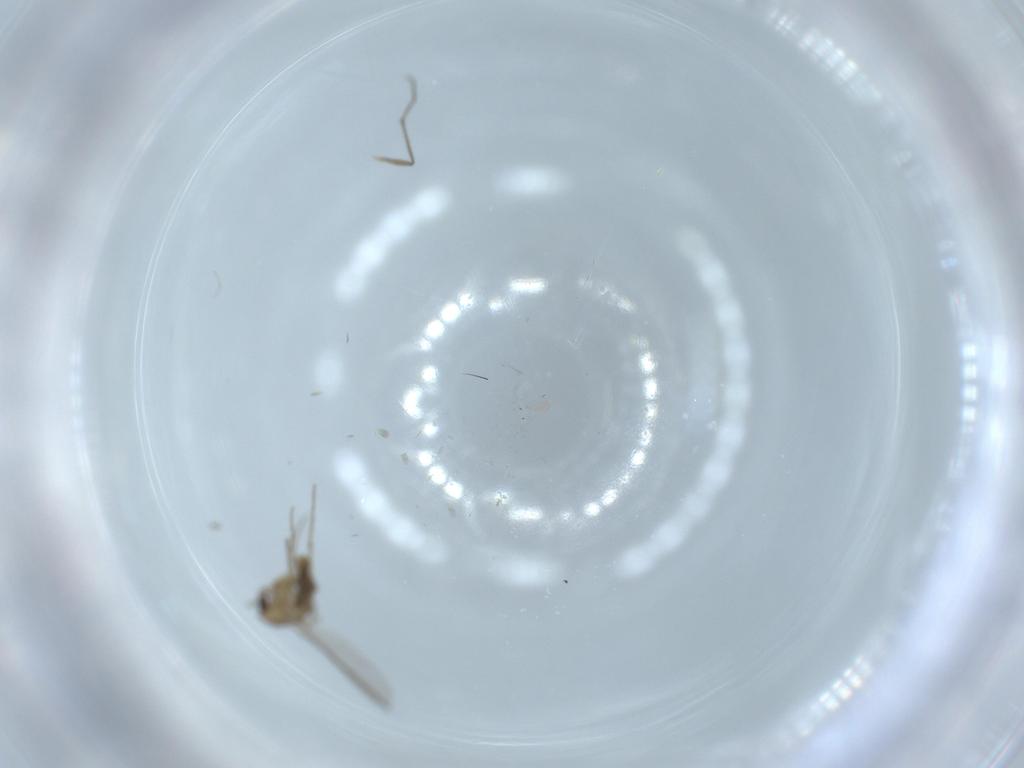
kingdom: Animalia
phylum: Arthropoda
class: Insecta
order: Diptera
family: Chironomidae
